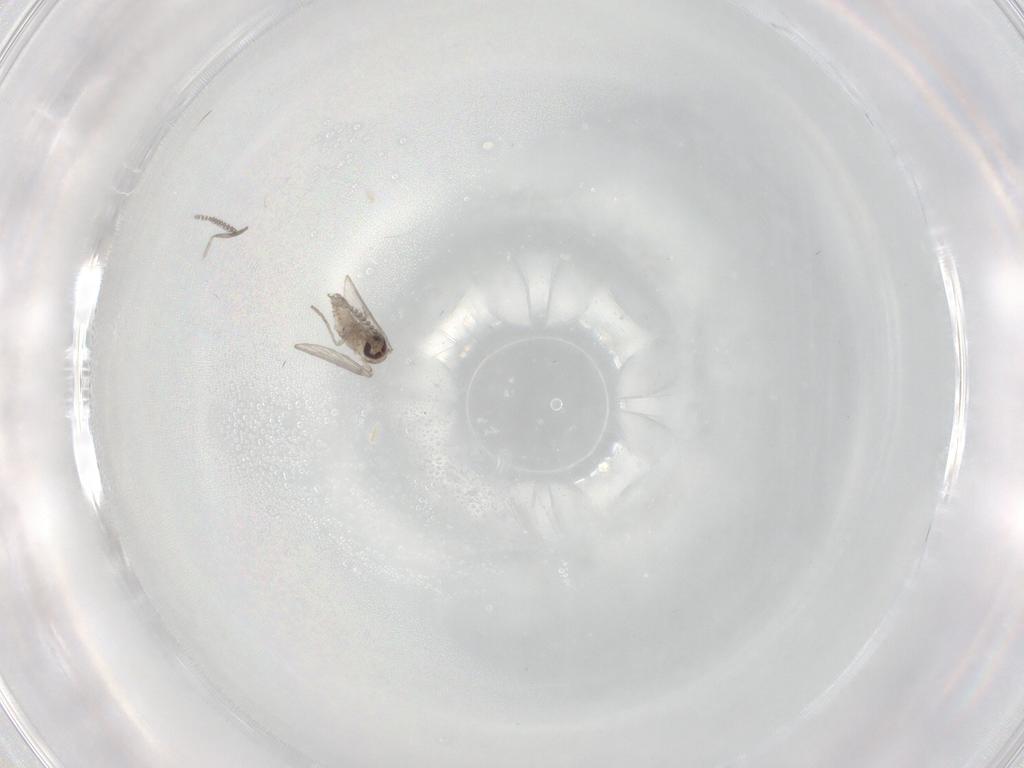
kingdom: Animalia
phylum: Arthropoda
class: Insecta
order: Diptera
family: Psychodidae
